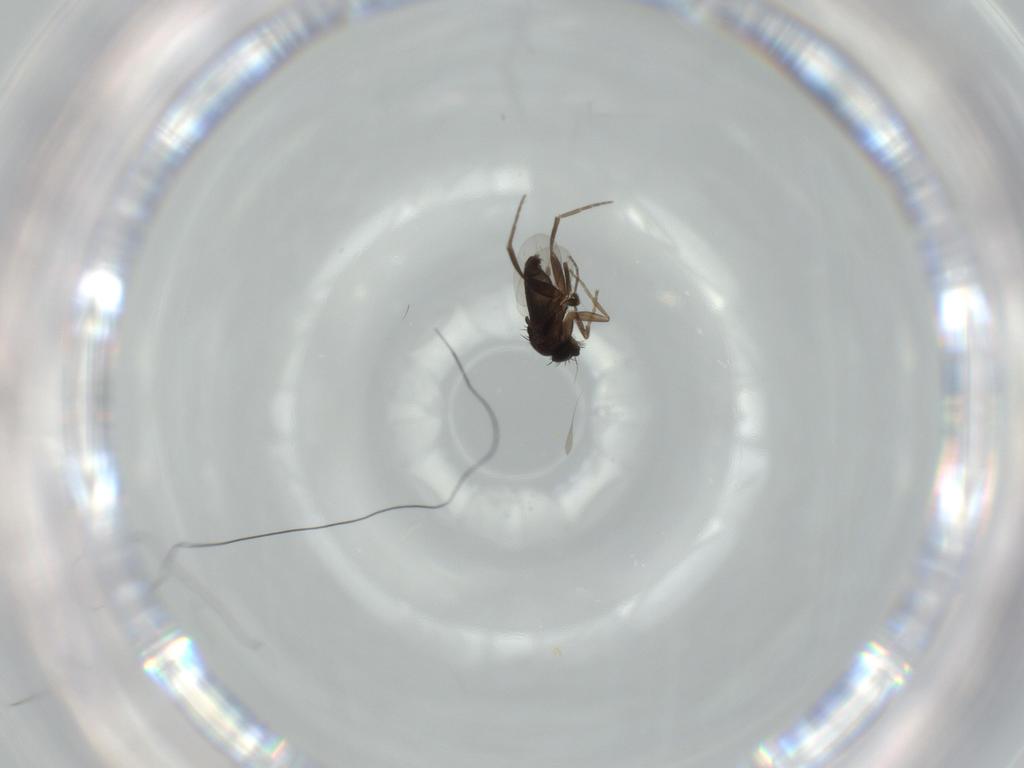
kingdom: Animalia
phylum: Arthropoda
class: Insecta
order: Diptera
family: Phoridae
